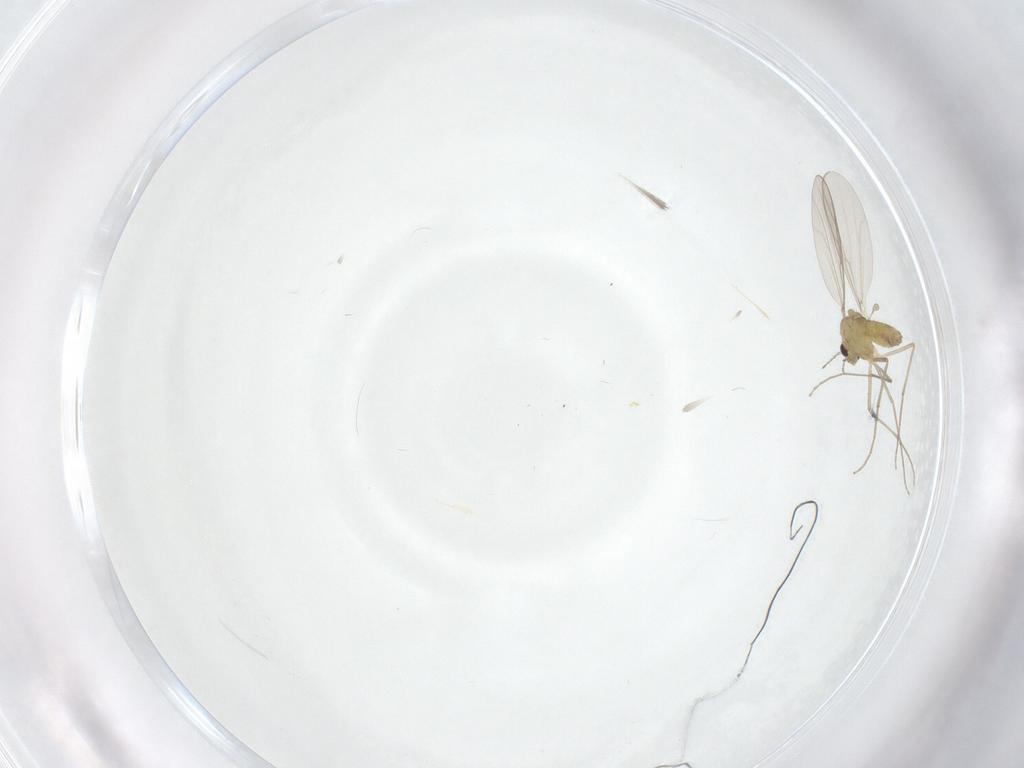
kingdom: Animalia
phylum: Arthropoda
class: Insecta
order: Diptera
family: Chironomidae
